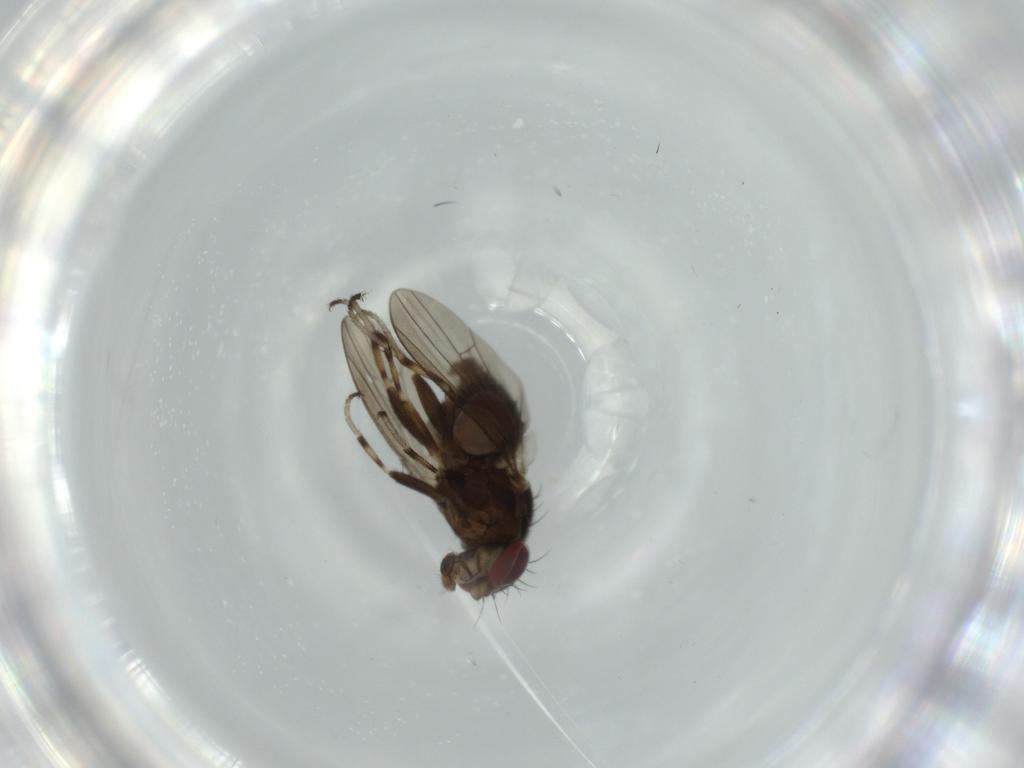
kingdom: Animalia
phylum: Arthropoda
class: Insecta
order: Diptera
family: Heleomyzidae
